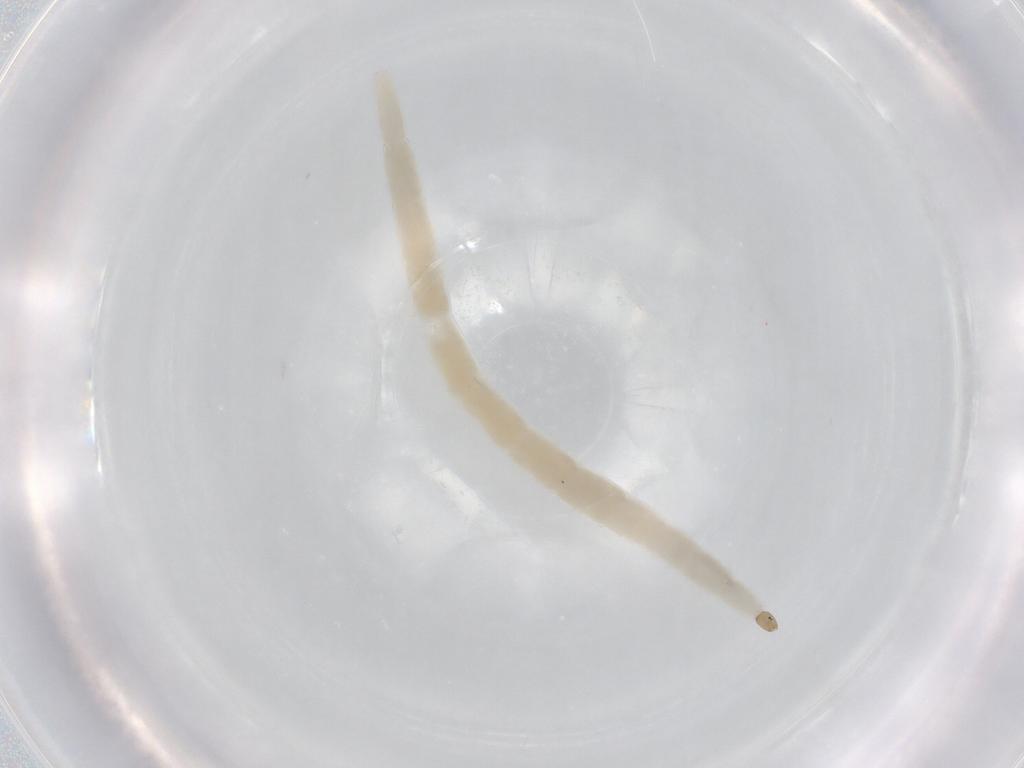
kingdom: Animalia
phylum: Arthropoda
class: Insecta
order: Diptera
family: Ceratopogonidae
